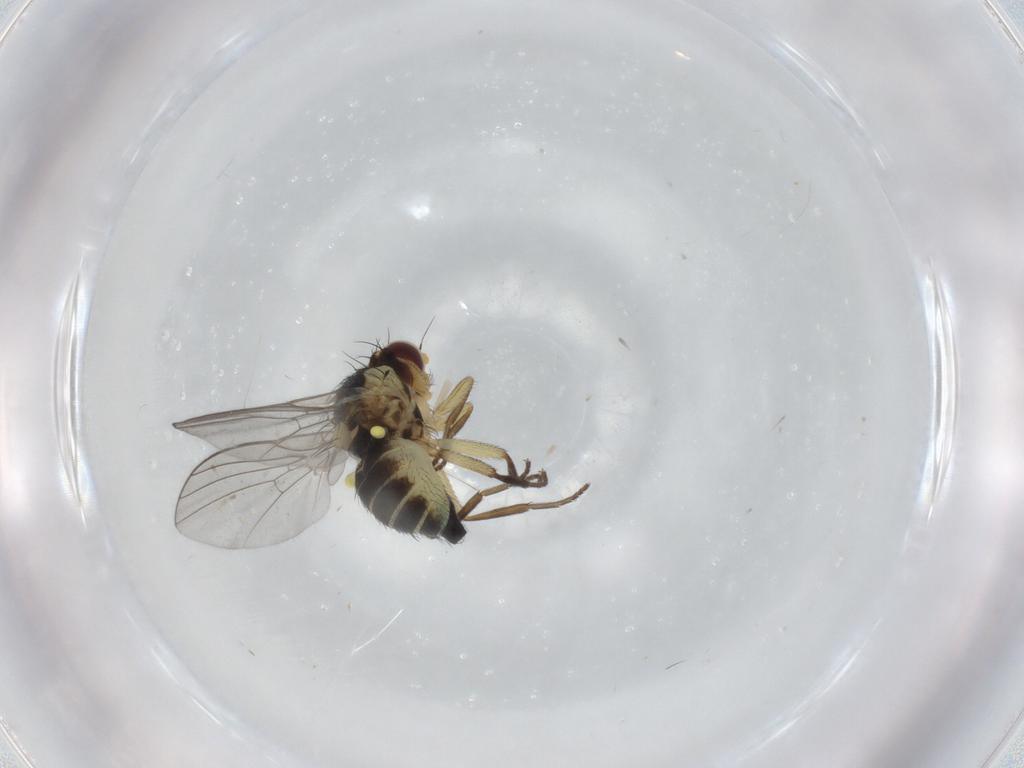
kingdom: Animalia
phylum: Arthropoda
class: Insecta
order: Diptera
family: Agromyzidae
